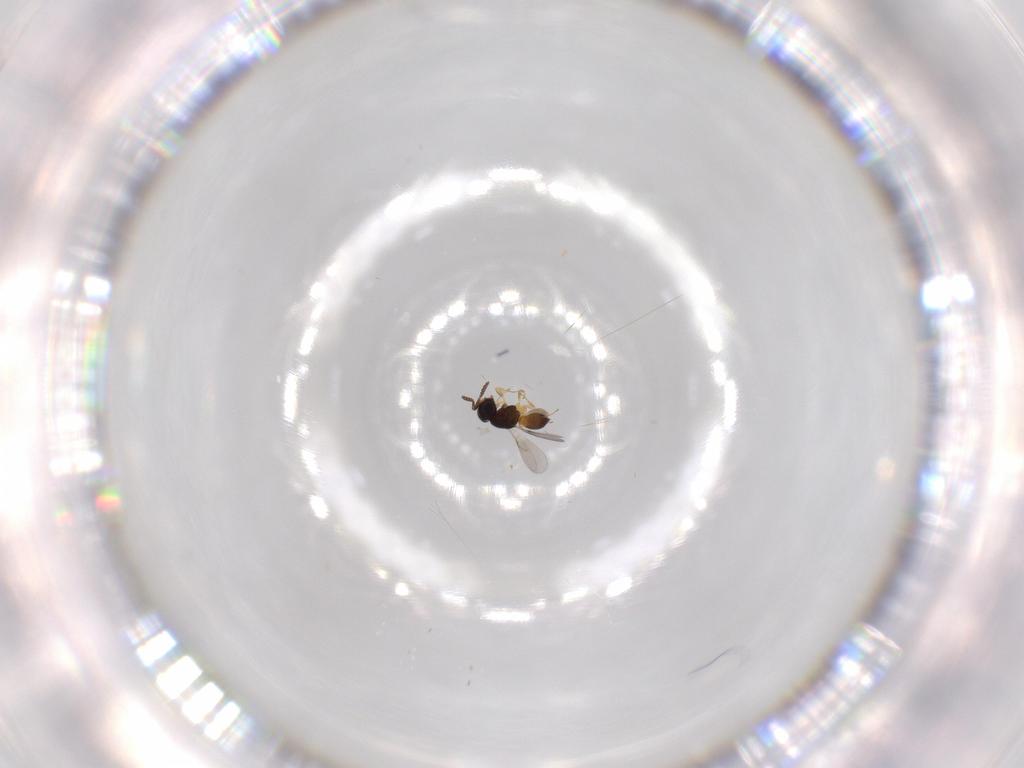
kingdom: Animalia
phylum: Arthropoda
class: Insecta
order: Hymenoptera
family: Scelionidae
